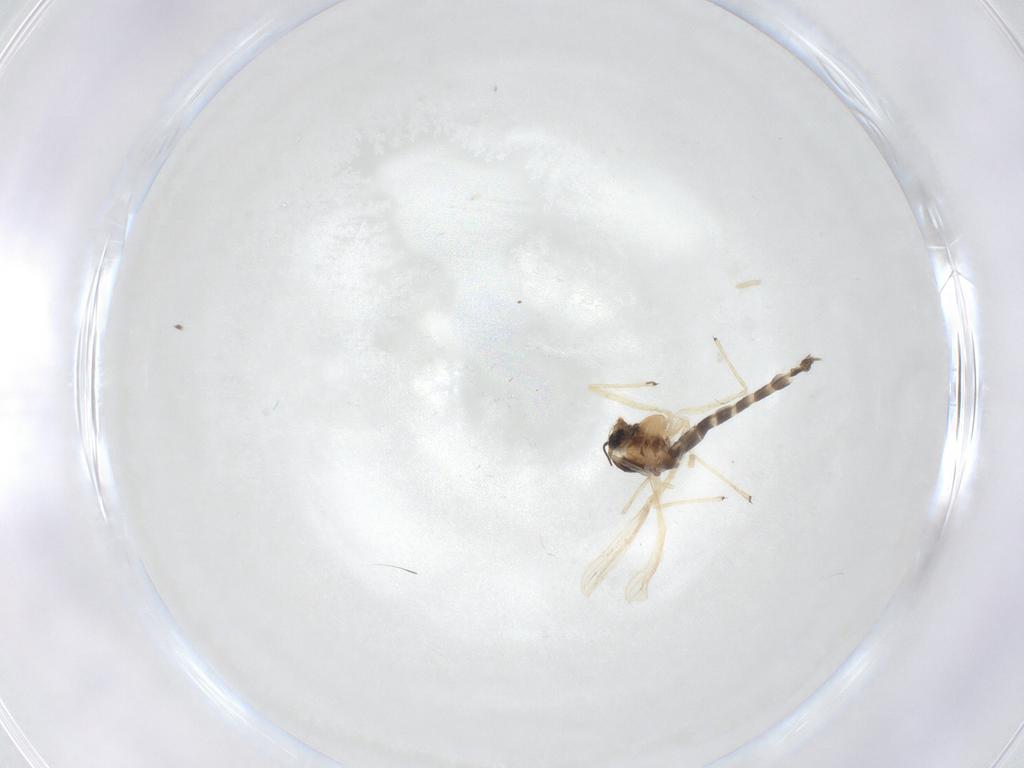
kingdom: Animalia
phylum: Arthropoda
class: Insecta
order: Diptera
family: Chironomidae
